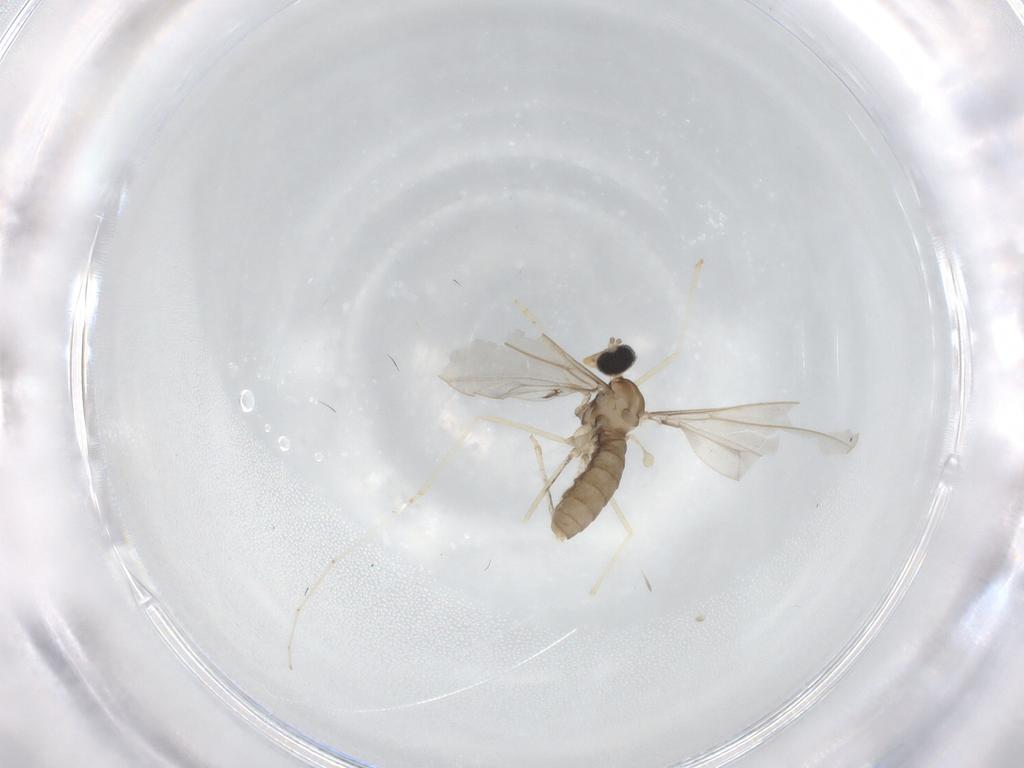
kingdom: Animalia
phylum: Arthropoda
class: Insecta
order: Diptera
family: Cecidomyiidae
